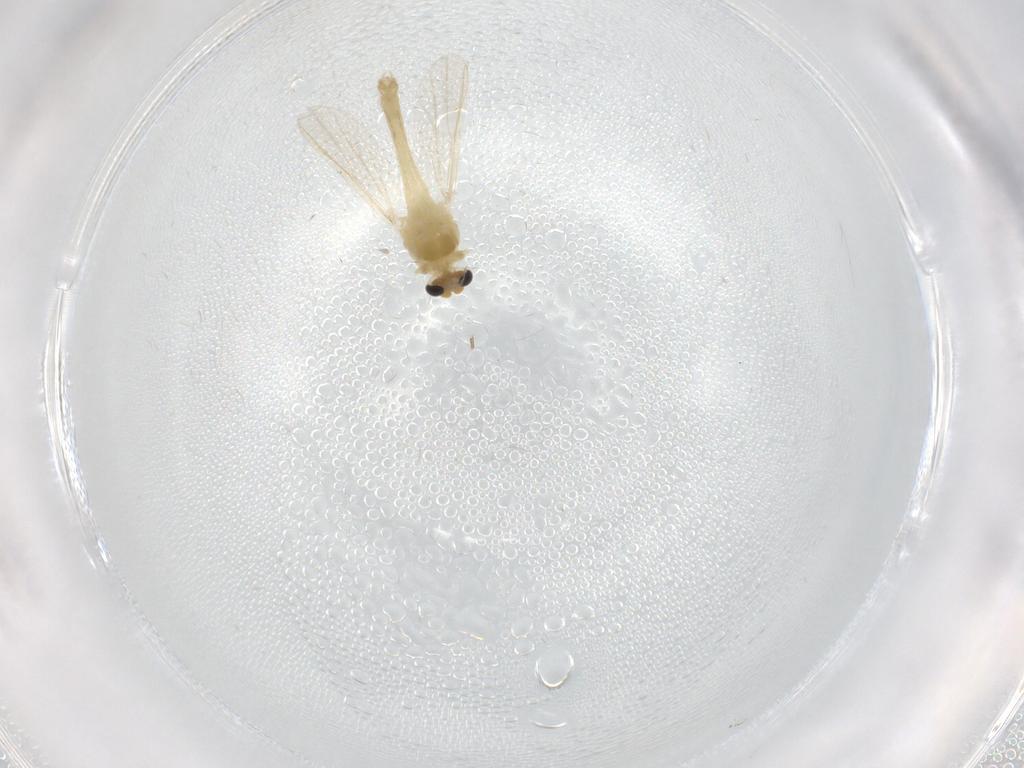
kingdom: Animalia
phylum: Arthropoda
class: Insecta
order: Diptera
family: Chironomidae
